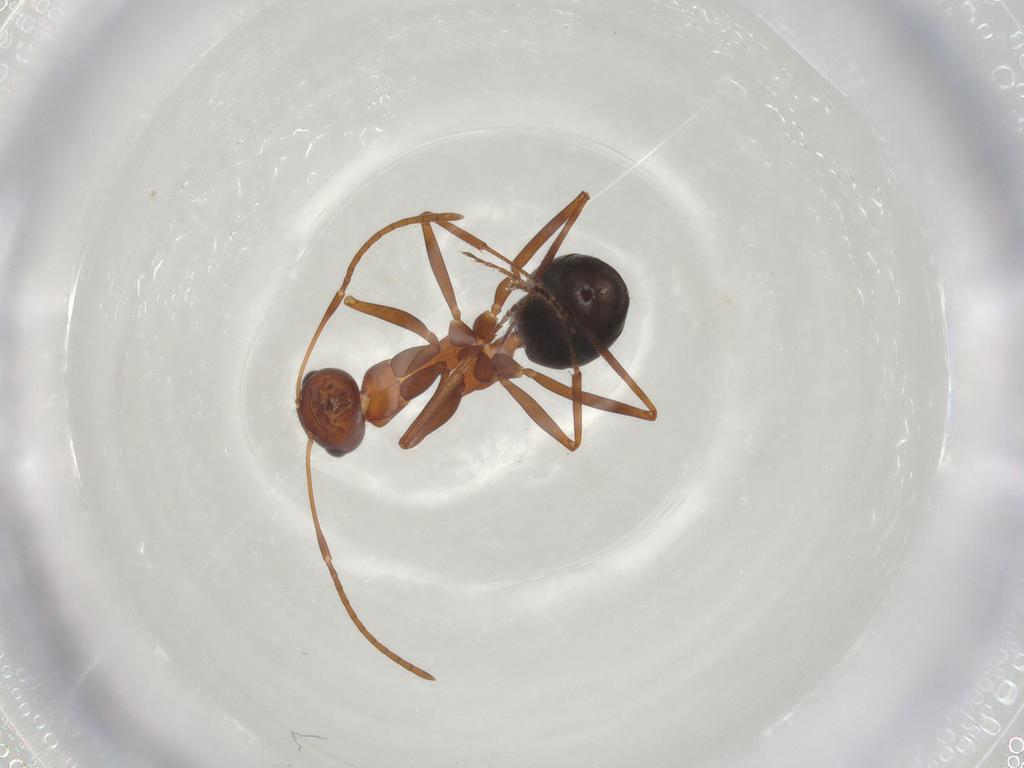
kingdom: Animalia
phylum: Arthropoda
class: Insecta
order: Hymenoptera
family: Formicidae
